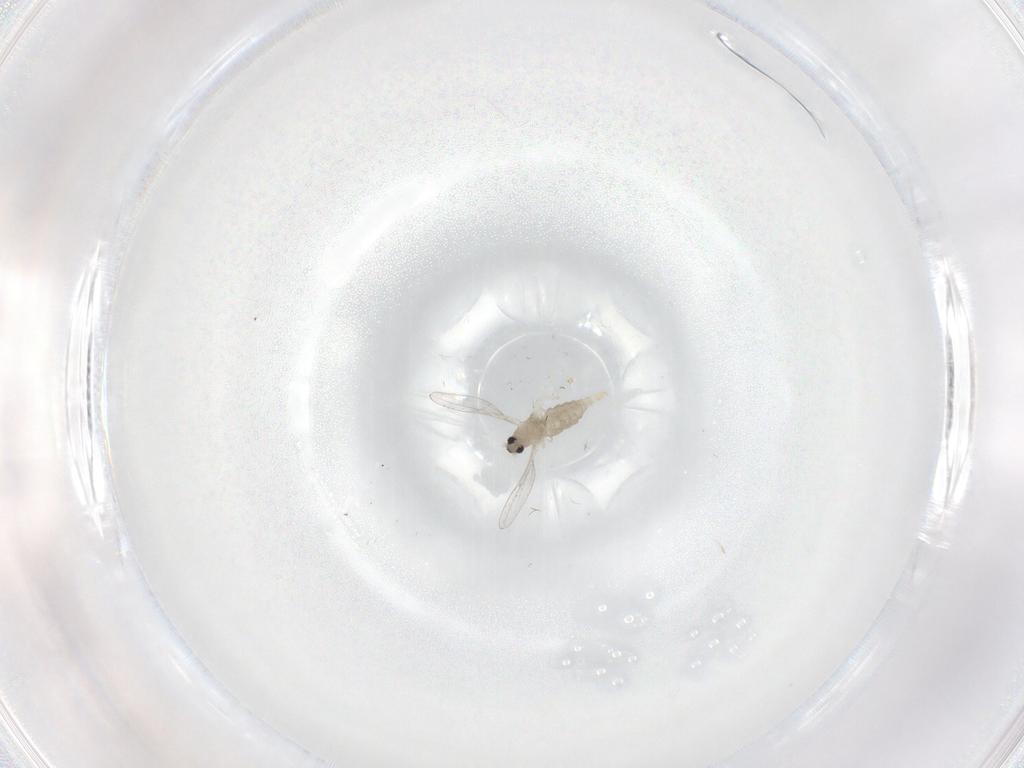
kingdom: Animalia
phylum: Arthropoda
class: Insecta
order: Diptera
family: Cecidomyiidae
